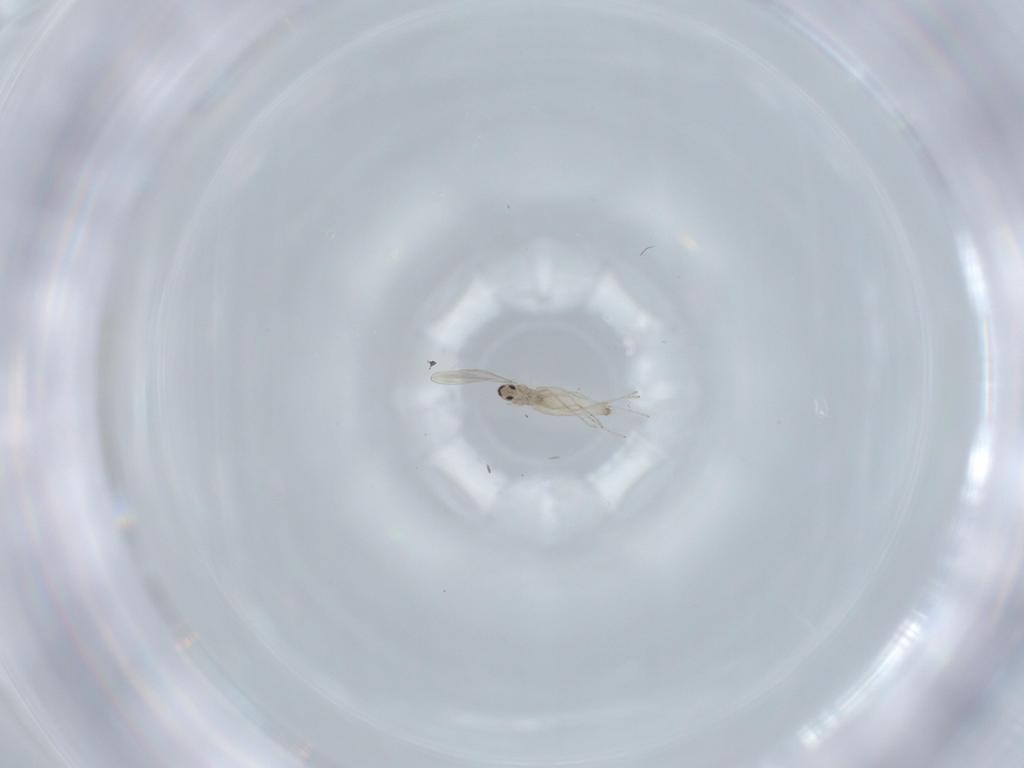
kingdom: Animalia
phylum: Arthropoda
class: Insecta
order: Diptera
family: Cecidomyiidae
